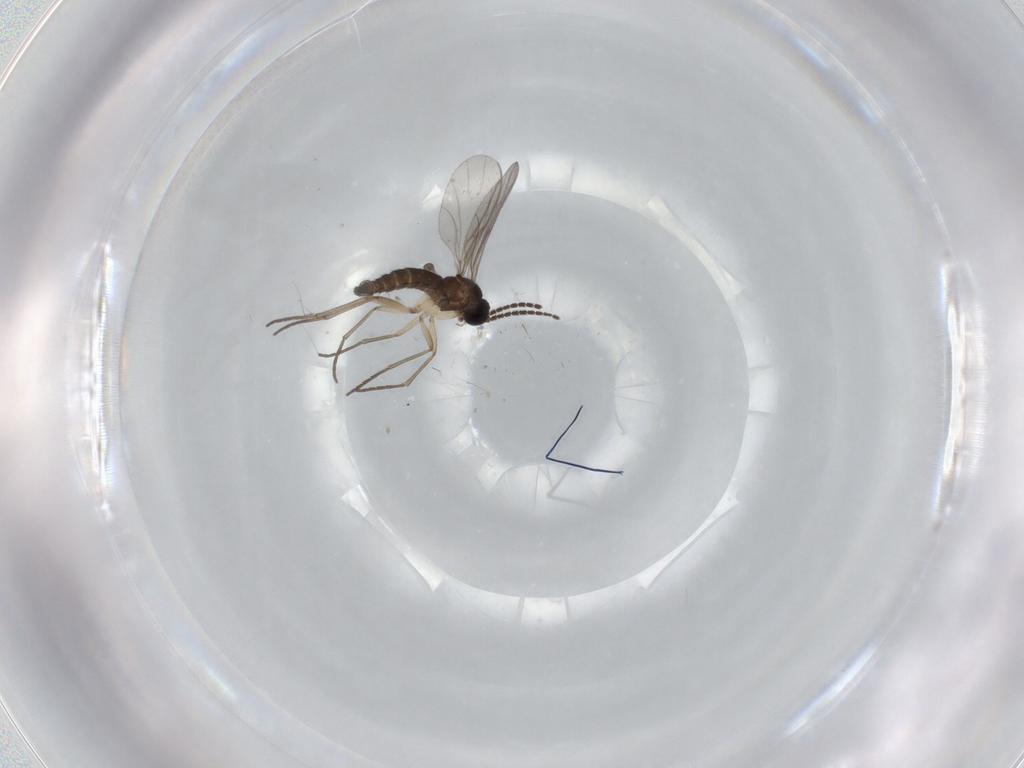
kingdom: Animalia
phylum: Arthropoda
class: Insecta
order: Diptera
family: Sciaridae
